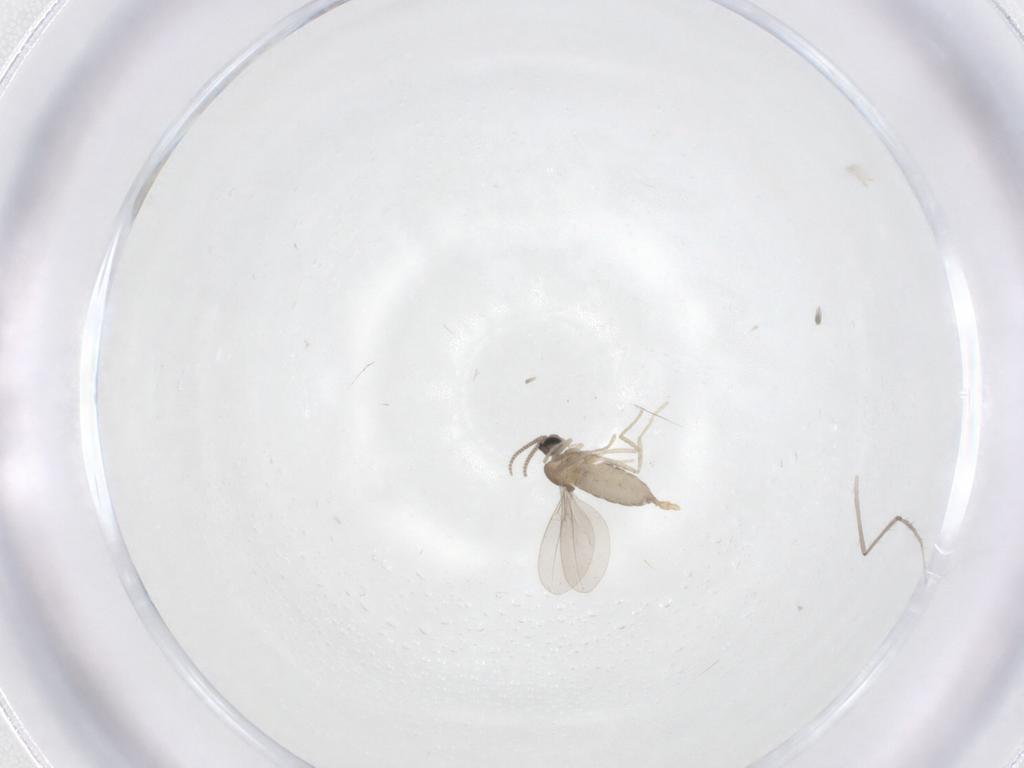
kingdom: Animalia
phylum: Arthropoda
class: Insecta
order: Diptera
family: Cecidomyiidae
